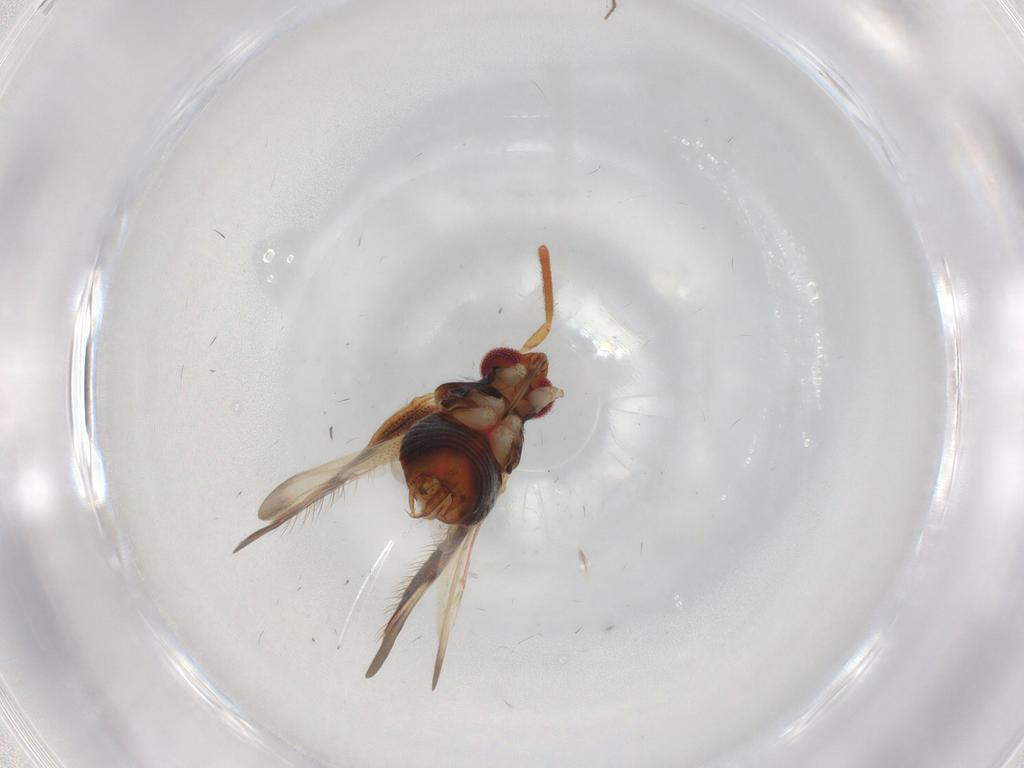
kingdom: Animalia
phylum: Arthropoda
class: Insecta
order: Hemiptera
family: Miridae
